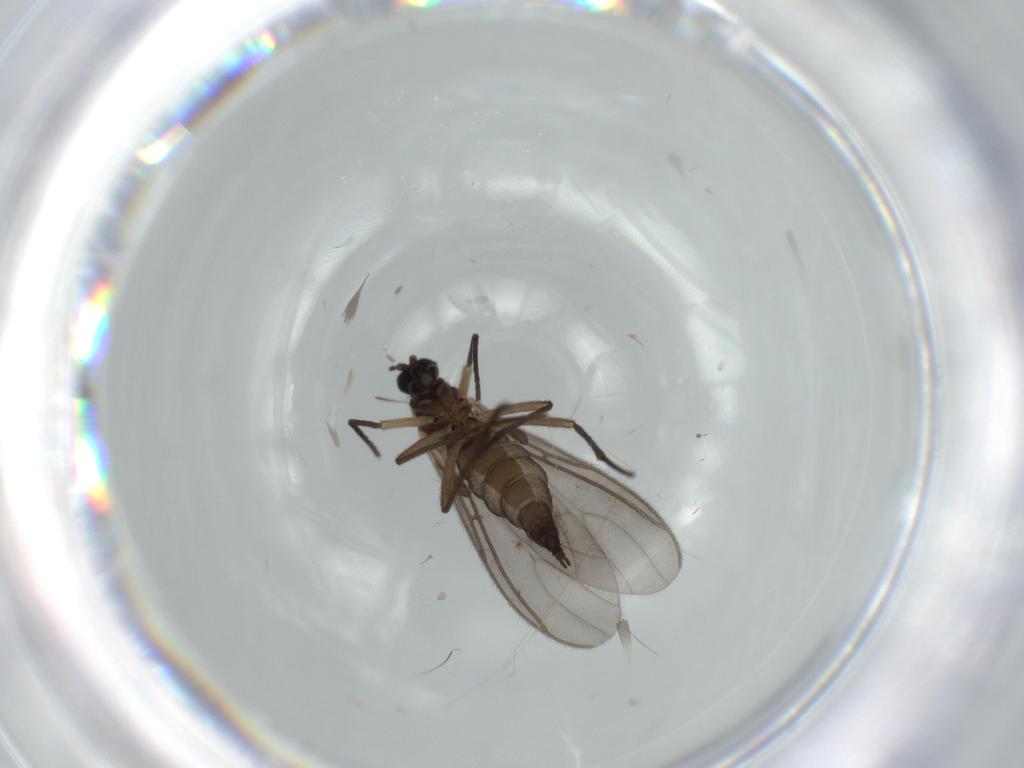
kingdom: Animalia
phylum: Arthropoda
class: Insecta
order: Diptera
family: Sciaridae
